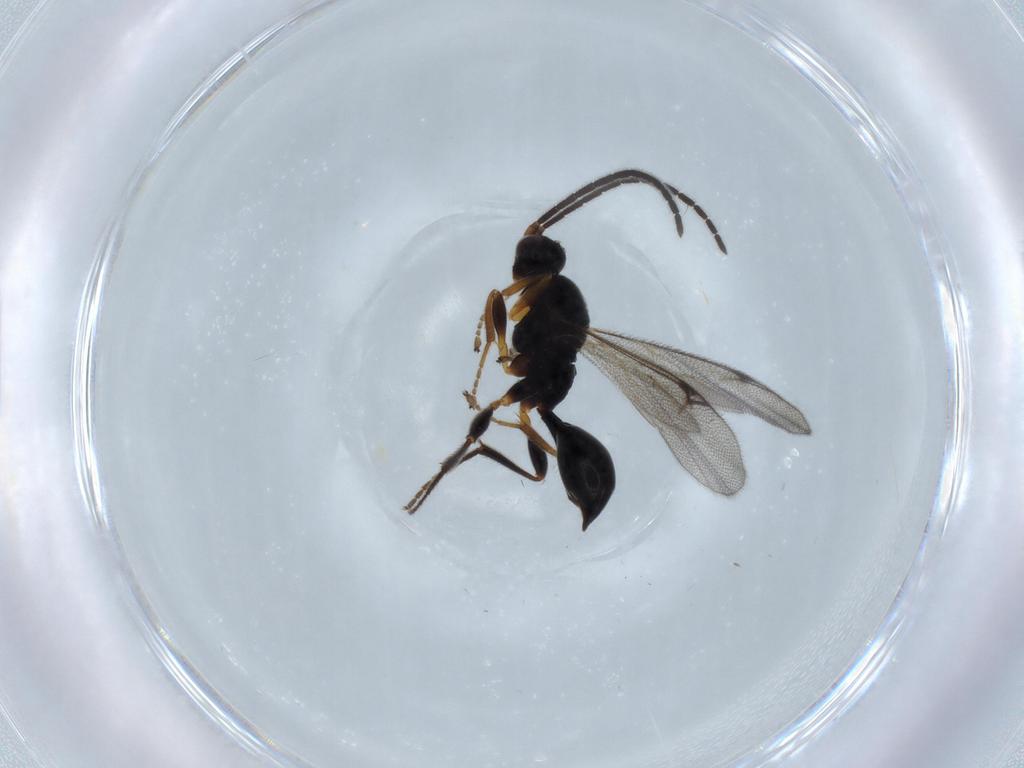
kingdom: Animalia
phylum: Arthropoda
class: Insecta
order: Hymenoptera
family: Proctotrupidae
